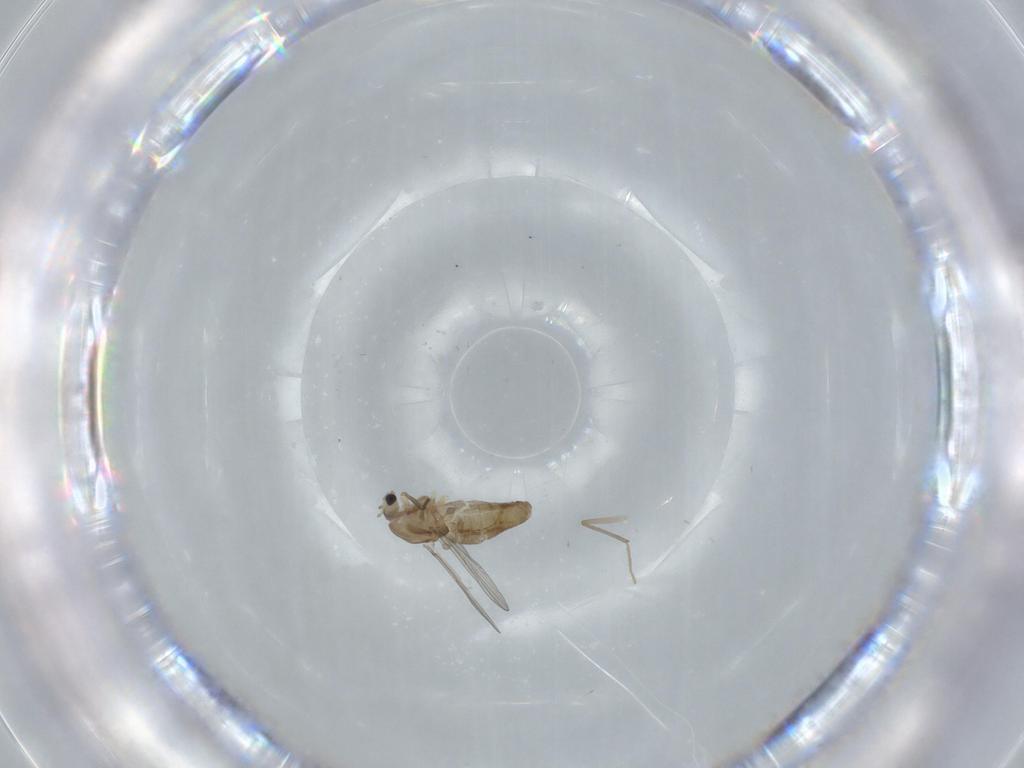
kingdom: Animalia
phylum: Arthropoda
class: Insecta
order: Diptera
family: Chironomidae
